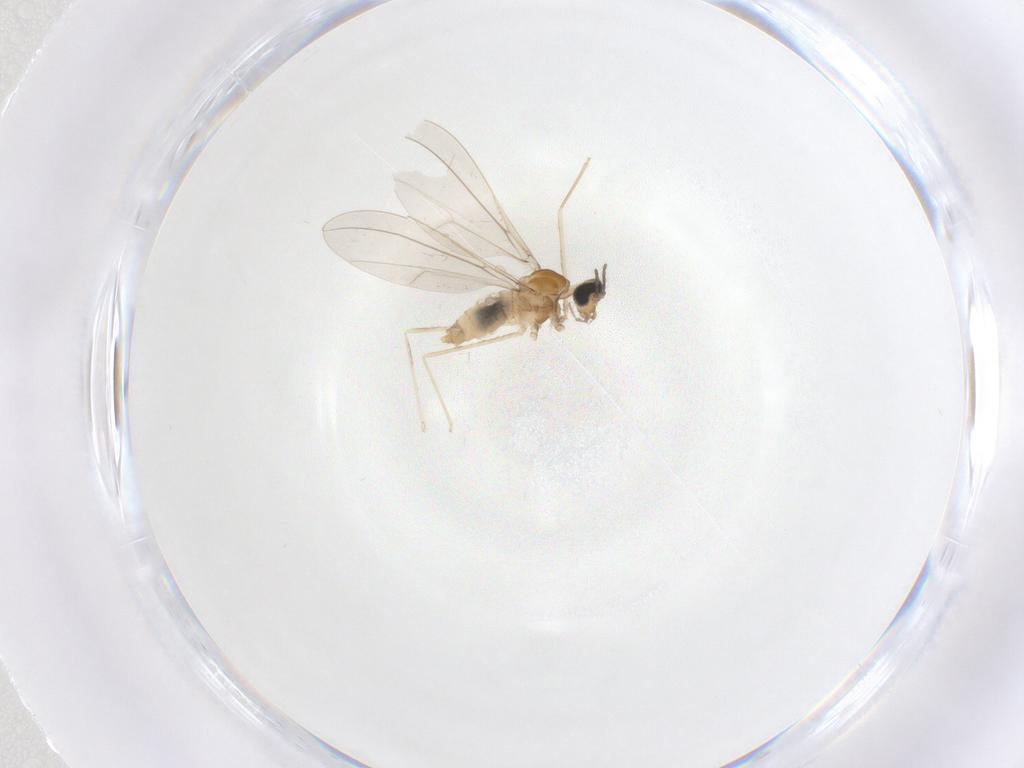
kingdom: Animalia
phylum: Arthropoda
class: Insecta
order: Diptera
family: Cecidomyiidae
